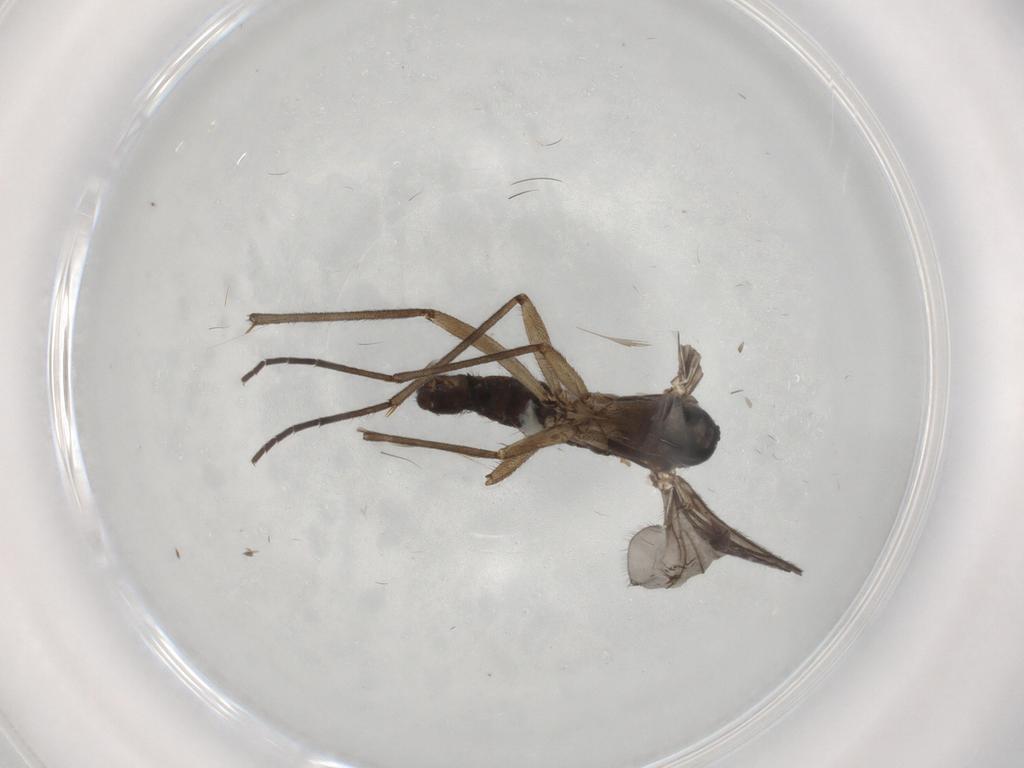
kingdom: Animalia
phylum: Arthropoda
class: Insecta
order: Diptera
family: Sciaridae
